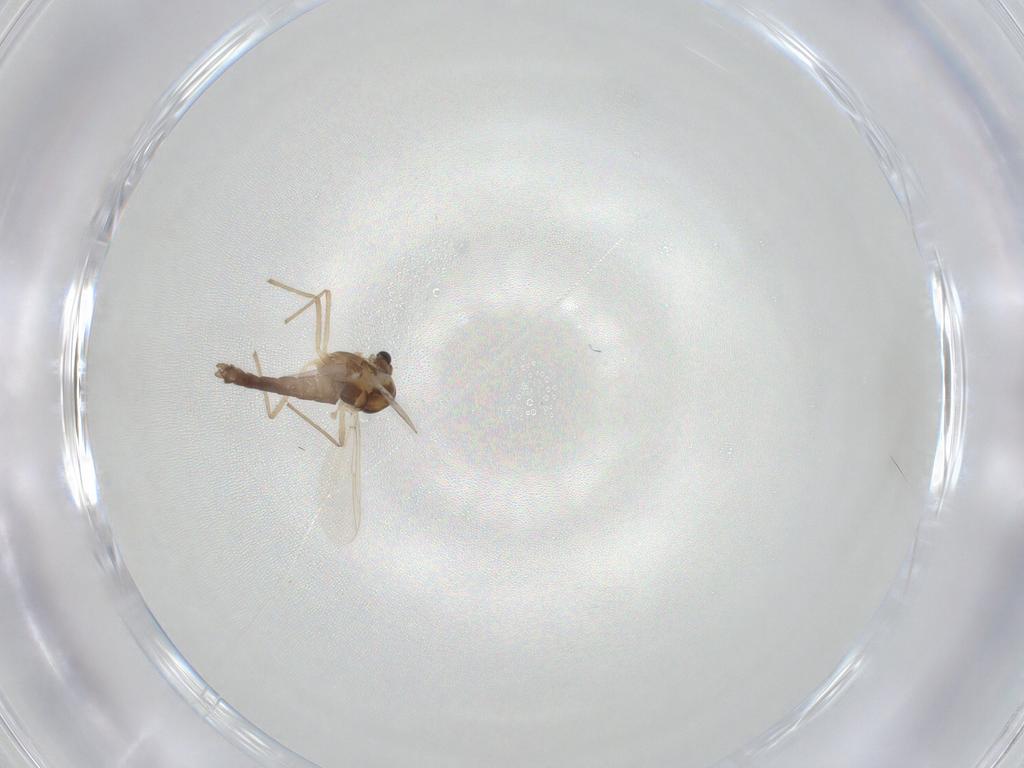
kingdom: Animalia
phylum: Arthropoda
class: Insecta
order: Diptera
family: Chironomidae
